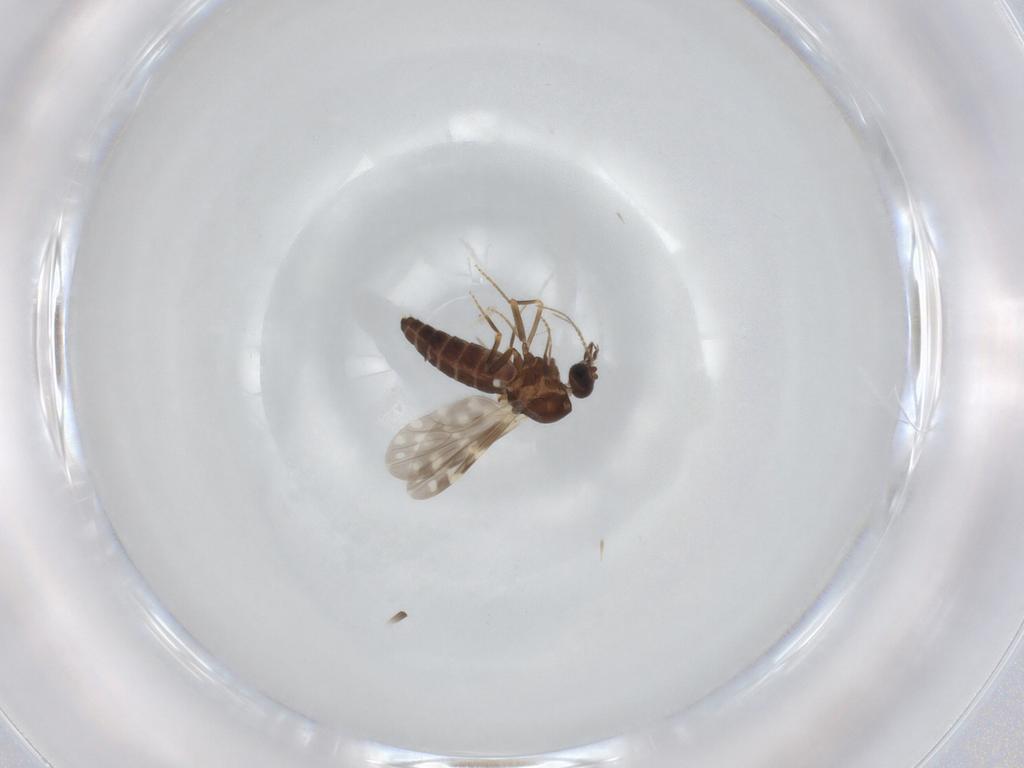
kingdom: Animalia
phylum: Arthropoda
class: Insecta
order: Diptera
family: Ceratopogonidae
